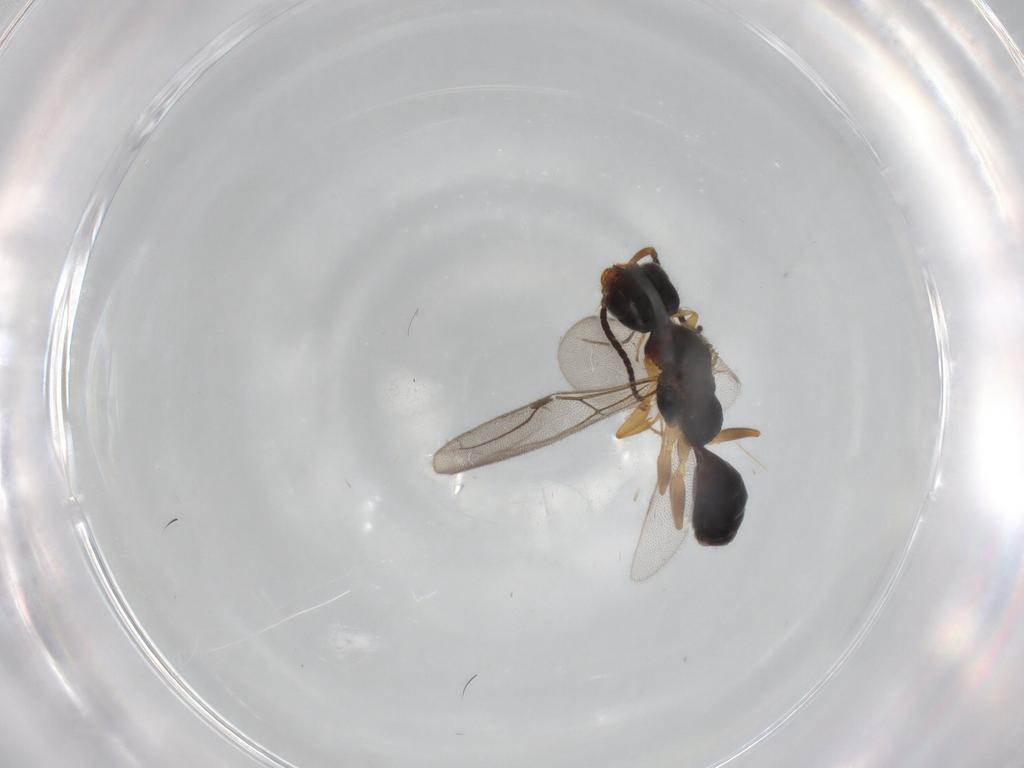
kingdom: Animalia
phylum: Arthropoda
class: Insecta
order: Hymenoptera
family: Bethylidae
